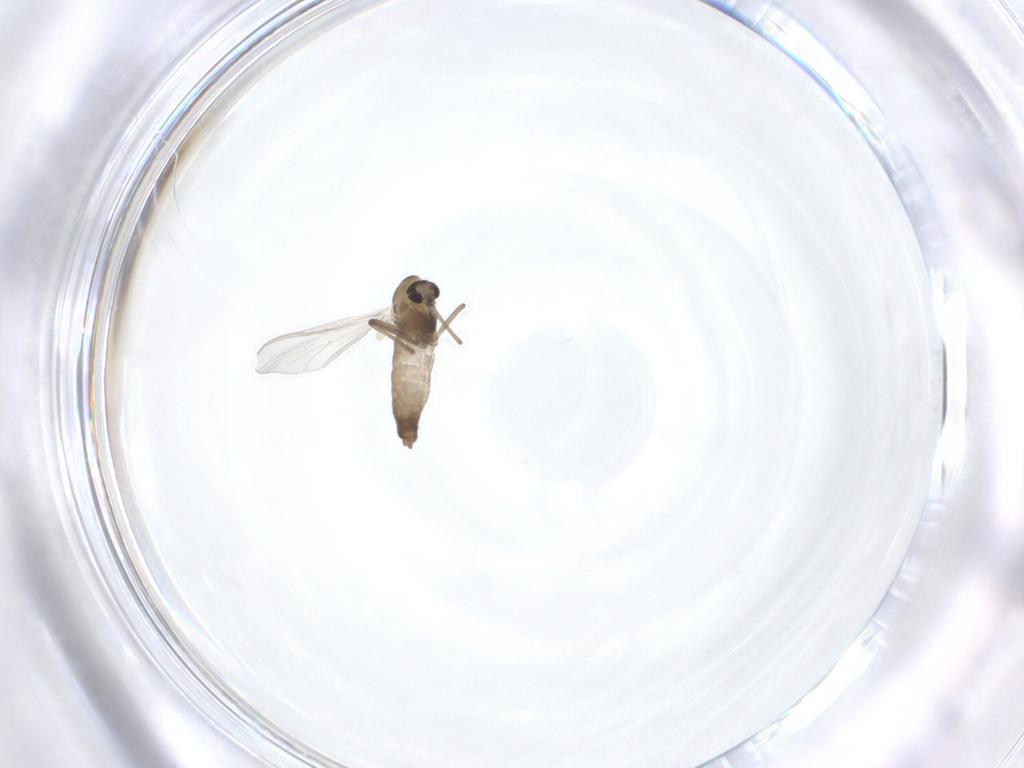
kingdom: Animalia
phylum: Arthropoda
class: Insecta
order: Diptera
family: Chironomidae
